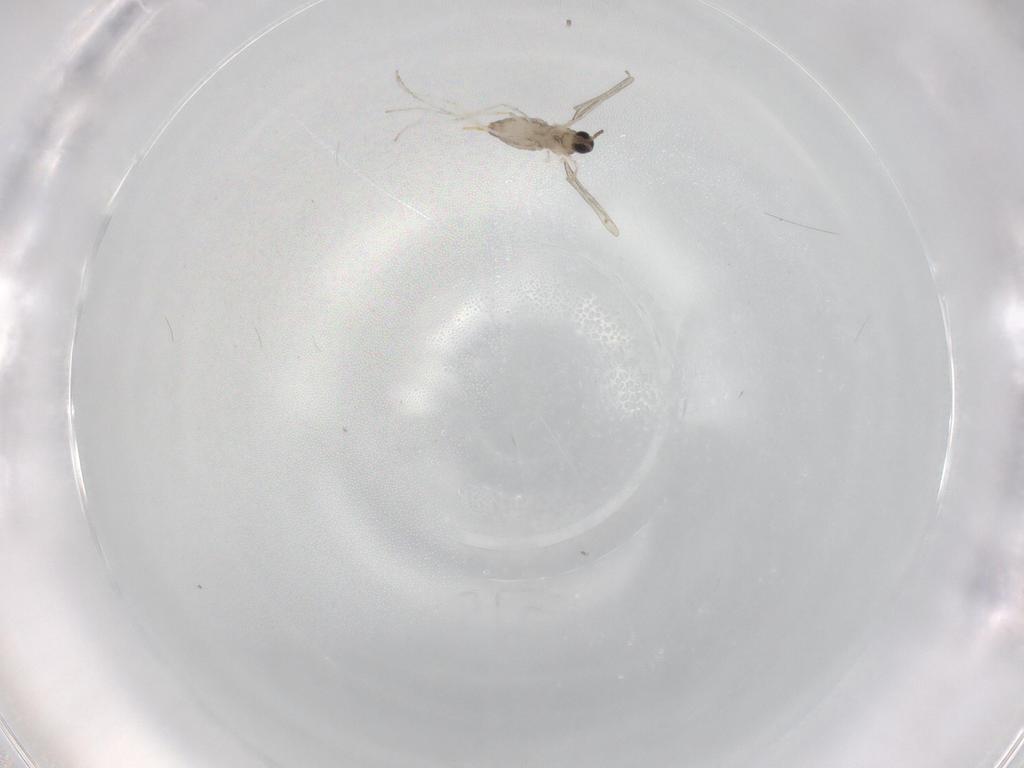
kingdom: Animalia
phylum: Arthropoda
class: Insecta
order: Diptera
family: Cecidomyiidae
